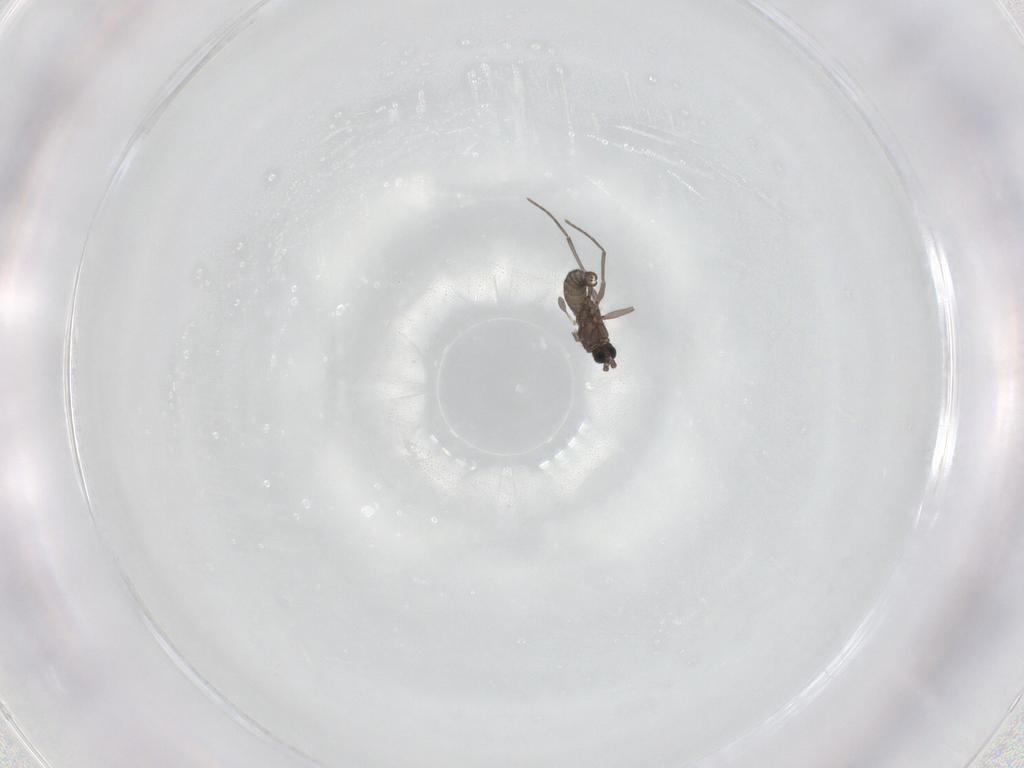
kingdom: Animalia
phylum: Arthropoda
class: Insecta
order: Diptera
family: Sciaridae
